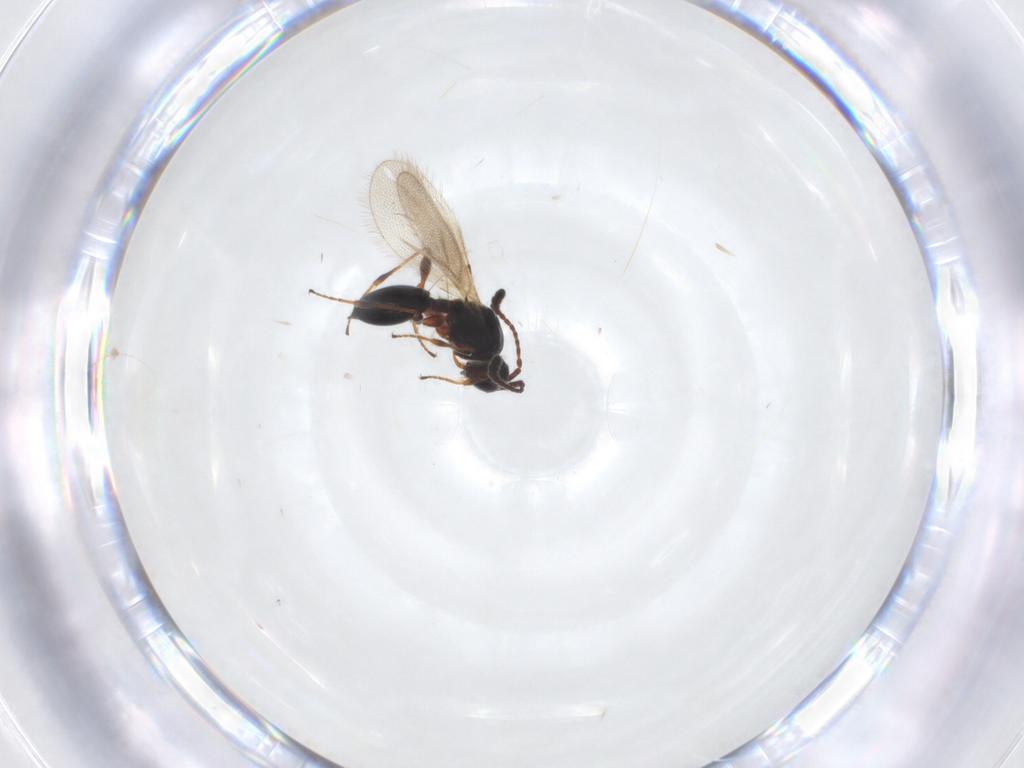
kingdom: Animalia
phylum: Arthropoda
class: Insecta
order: Hymenoptera
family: Diapriidae
